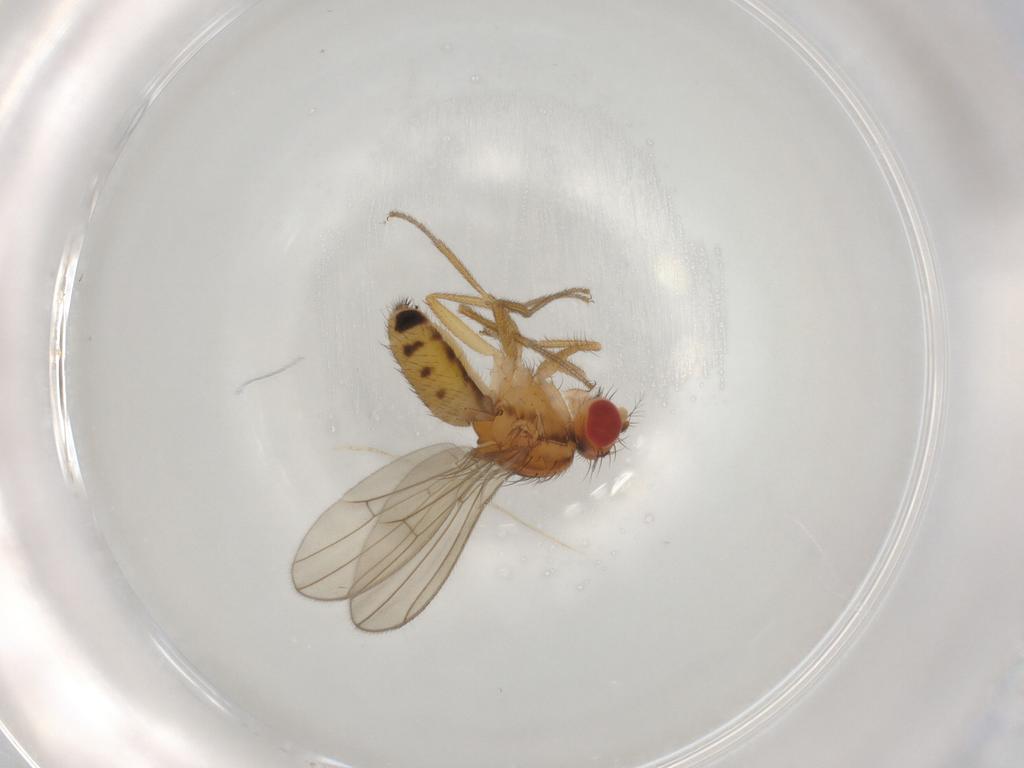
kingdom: Animalia
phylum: Arthropoda
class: Insecta
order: Diptera
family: Drosophilidae
